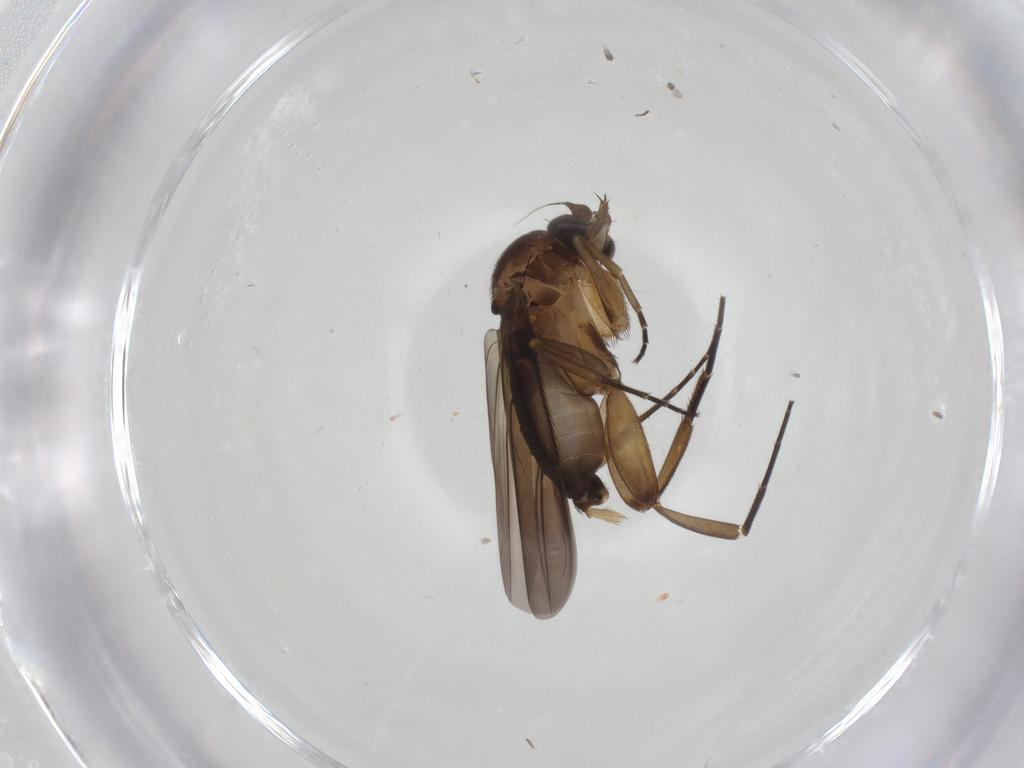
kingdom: Animalia
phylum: Arthropoda
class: Insecta
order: Diptera
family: Phoridae
